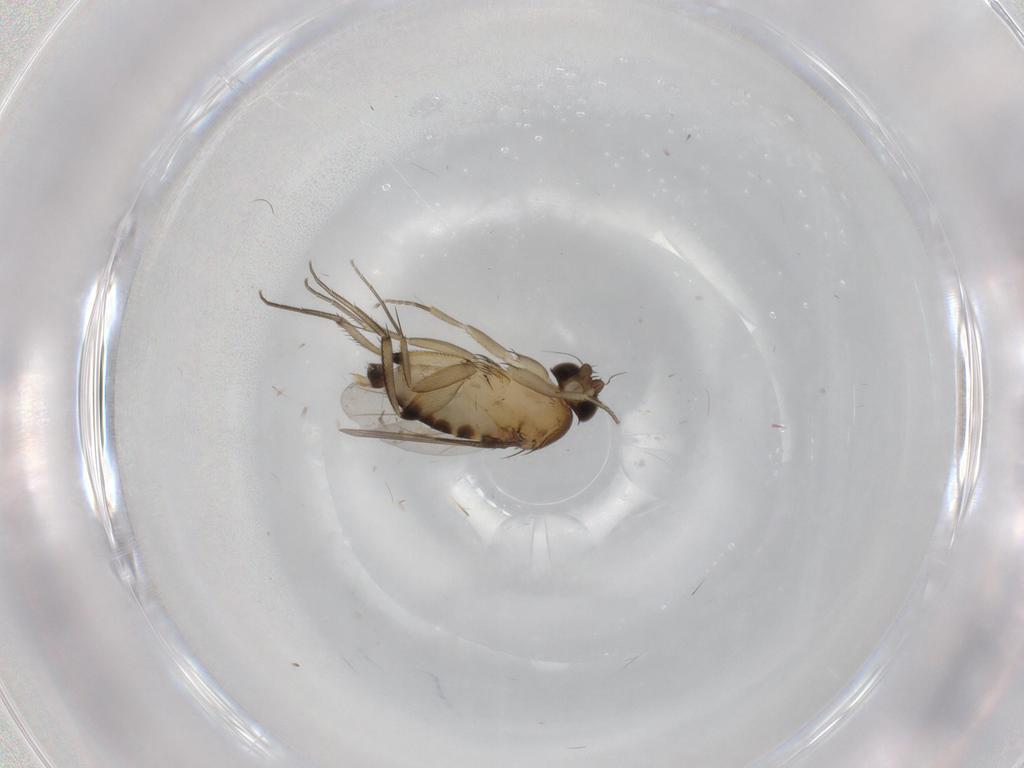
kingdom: Animalia
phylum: Arthropoda
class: Insecta
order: Diptera
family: Phoridae
